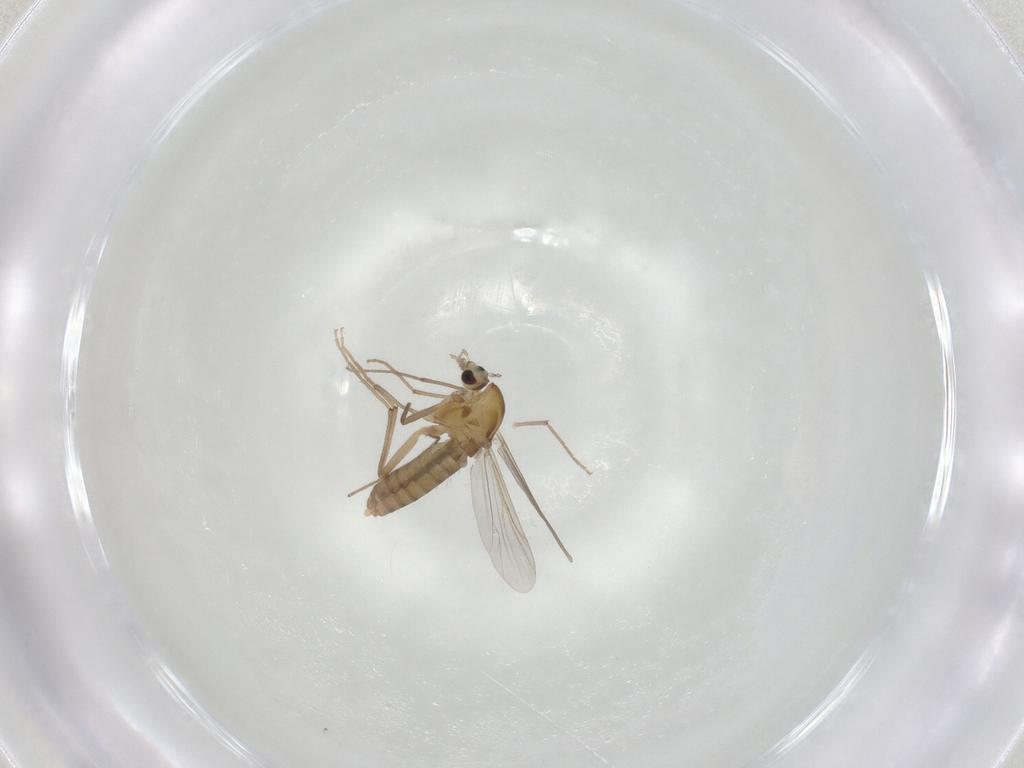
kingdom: Animalia
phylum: Arthropoda
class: Insecta
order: Diptera
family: Chironomidae
